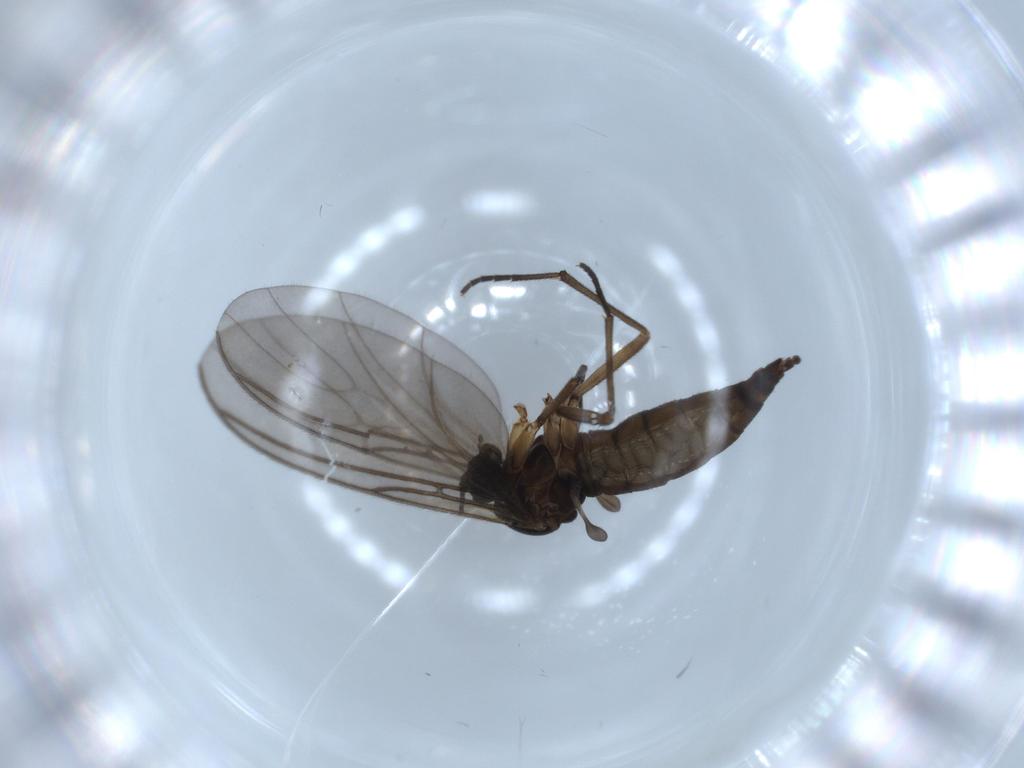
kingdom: Animalia
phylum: Arthropoda
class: Insecta
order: Diptera
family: Sciaridae
